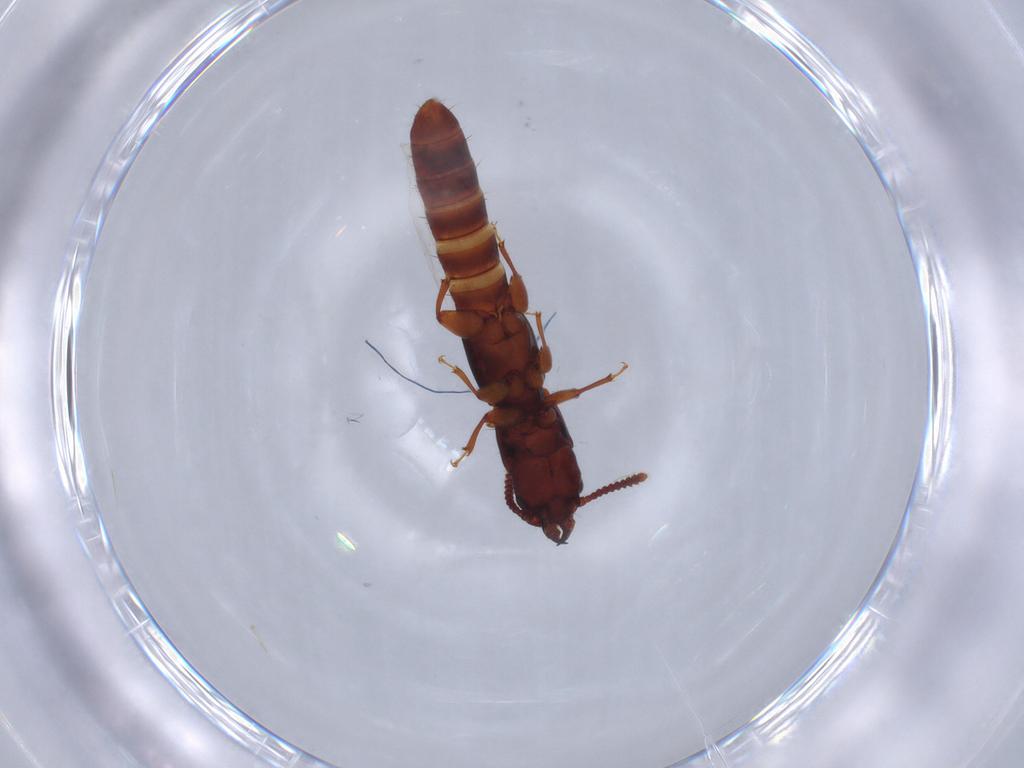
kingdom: Animalia
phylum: Arthropoda
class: Insecta
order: Coleoptera
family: Staphylinidae
